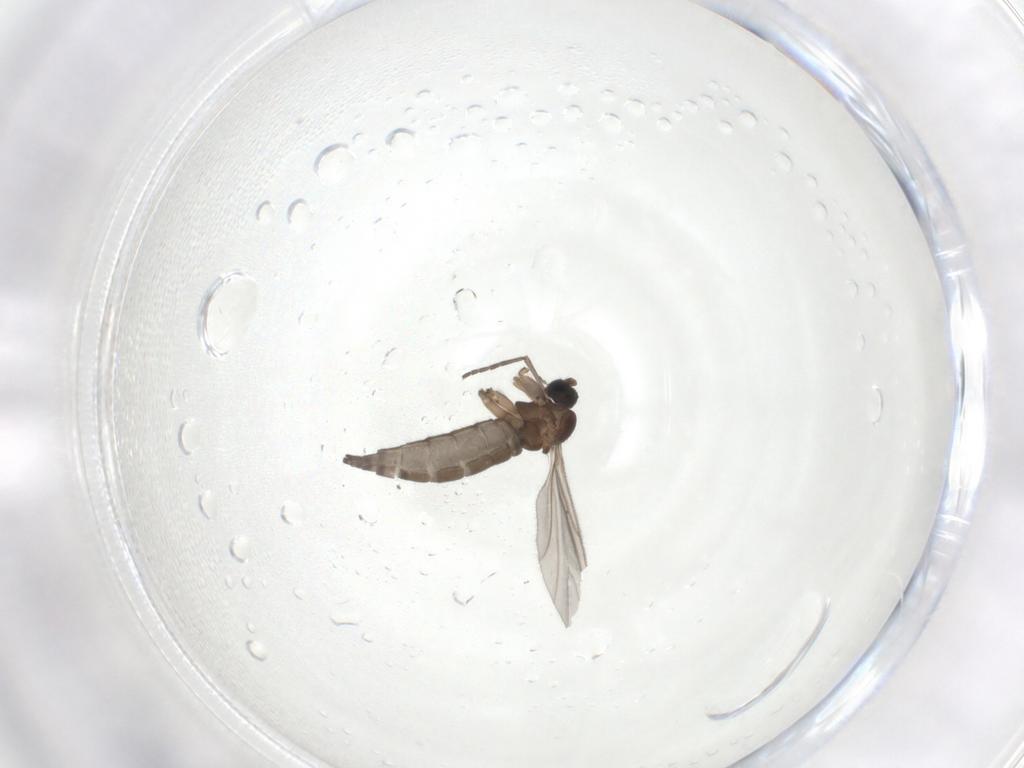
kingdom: Animalia
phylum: Arthropoda
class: Insecta
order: Diptera
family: Sciaridae
